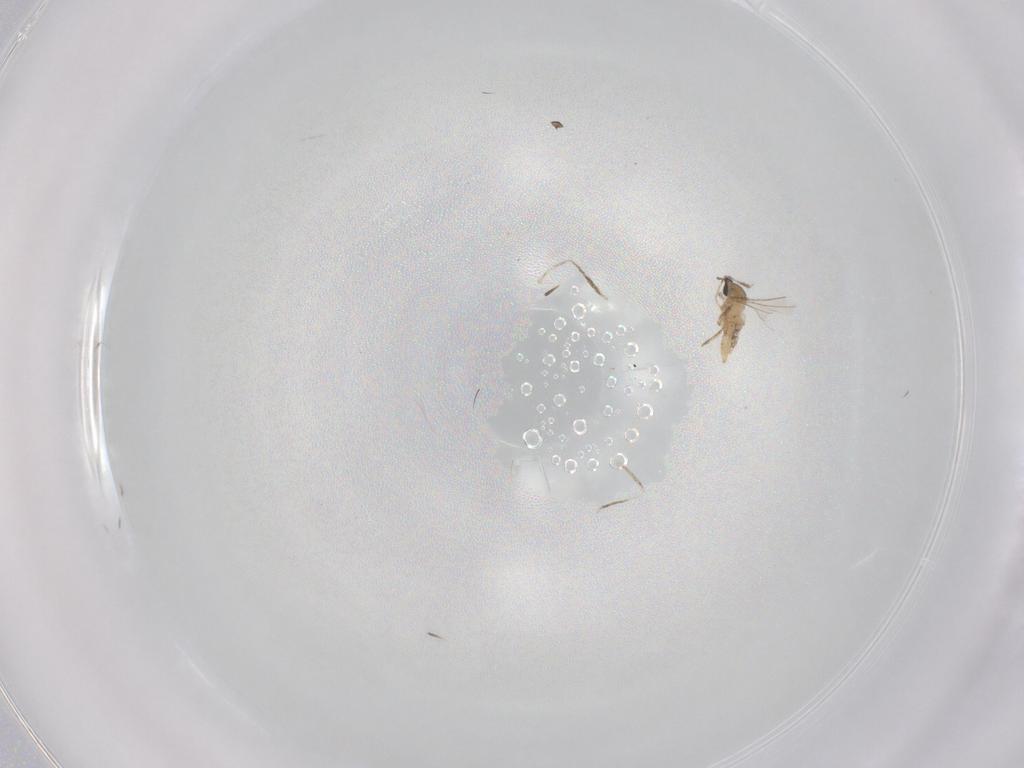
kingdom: Animalia
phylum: Arthropoda
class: Insecta
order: Diptera
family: Cecidomyiidae
